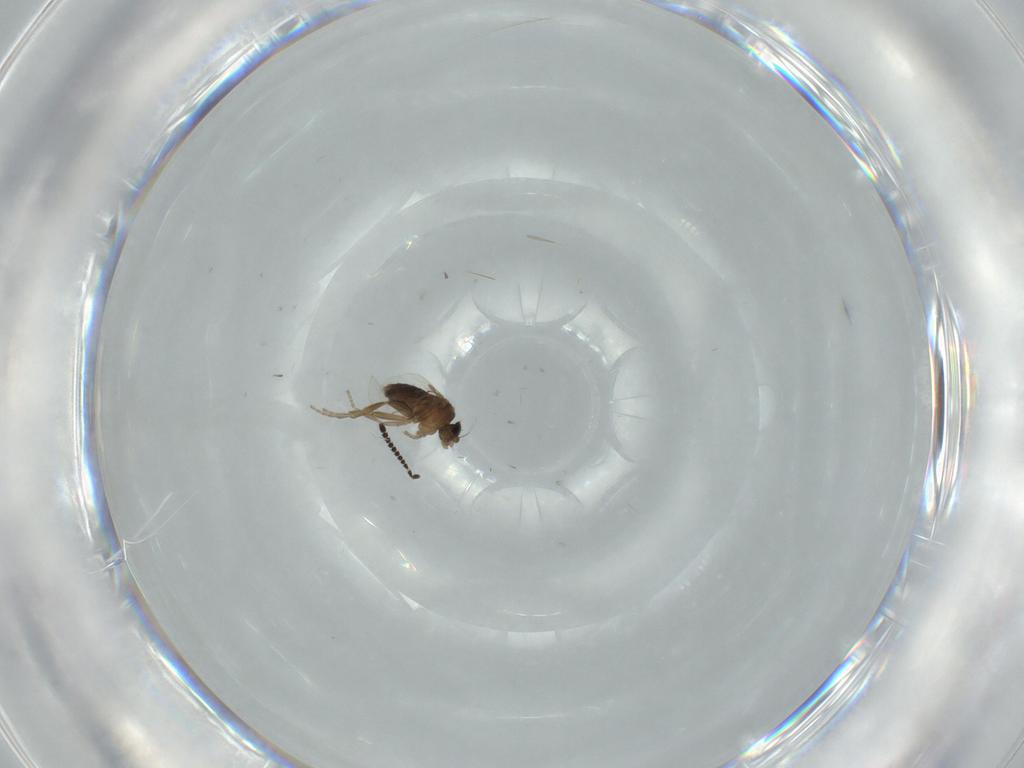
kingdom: Animalia
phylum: Arthropoda
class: Insecta
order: Diptera
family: Phoridae
